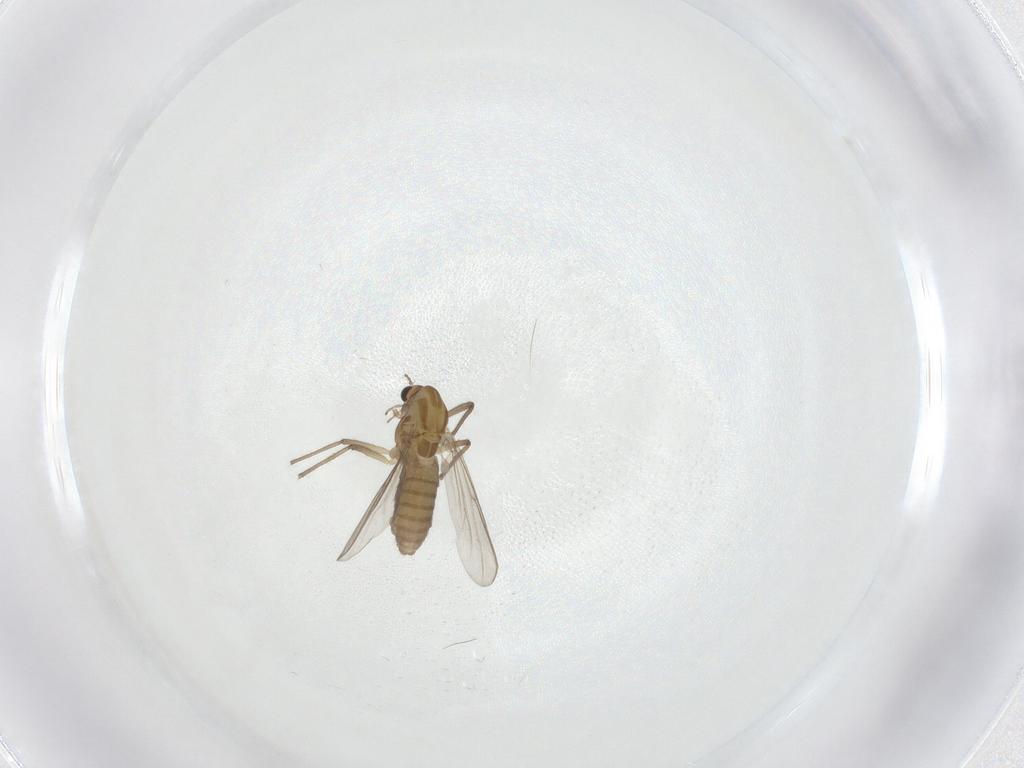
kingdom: Animalia
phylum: Arthropoda
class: Insecta
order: Diptera
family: Chironomidae
